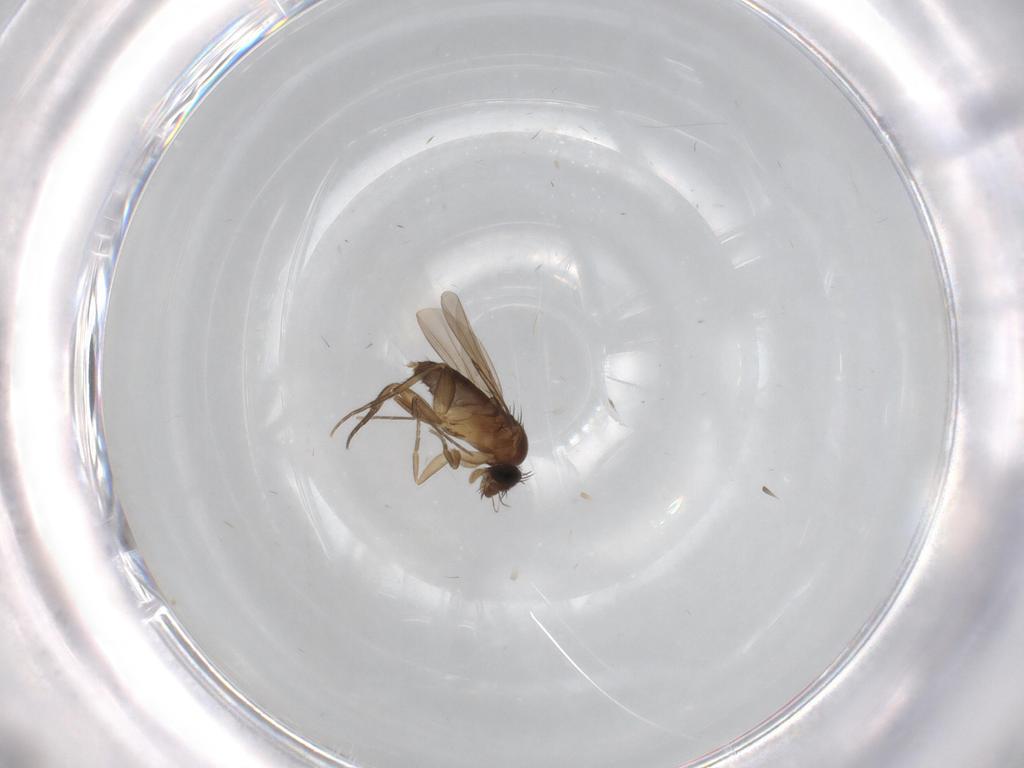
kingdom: Animalia
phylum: Arthropoda
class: Insecta
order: Diptera
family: Phoridae
